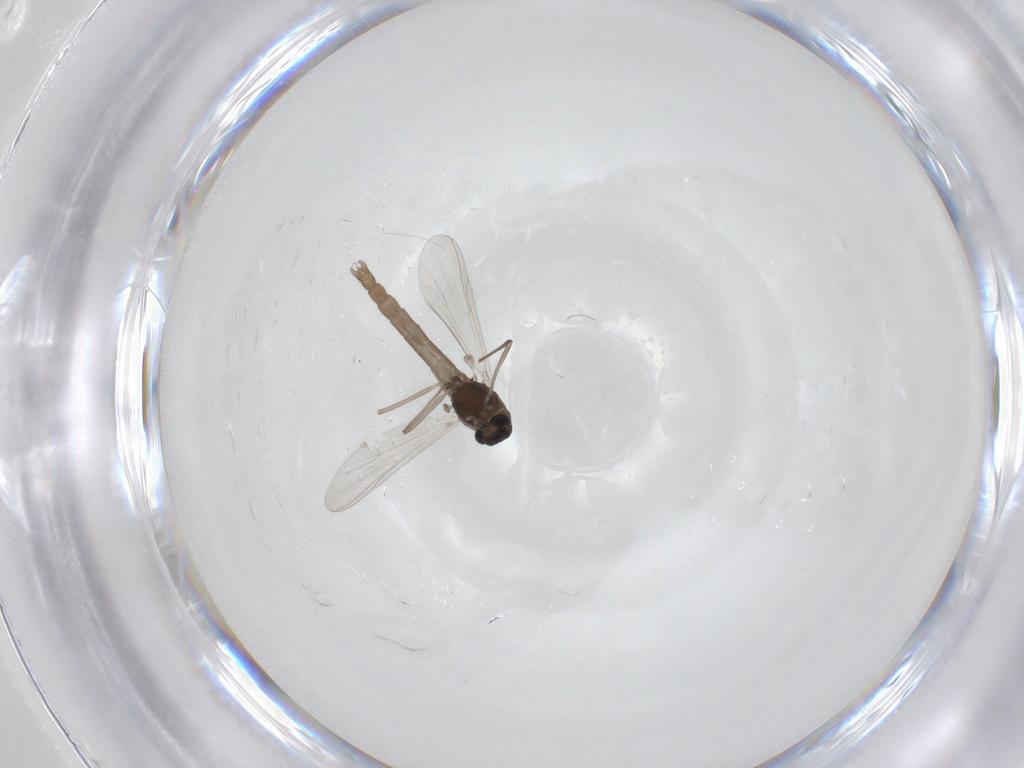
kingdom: Animalia
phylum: Arthropoda
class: Insecta
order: Diptera
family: Chironomidae
